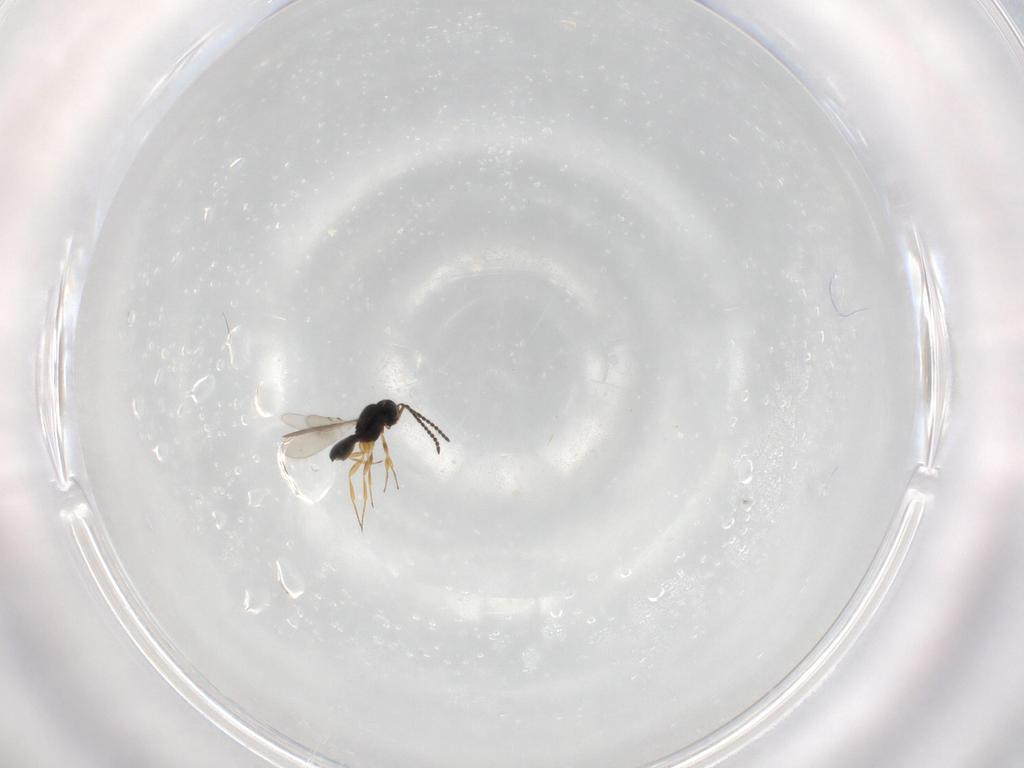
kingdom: Animalia
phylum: Arthropoda
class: Insecta
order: Hymenoptera
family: Scelionidae
